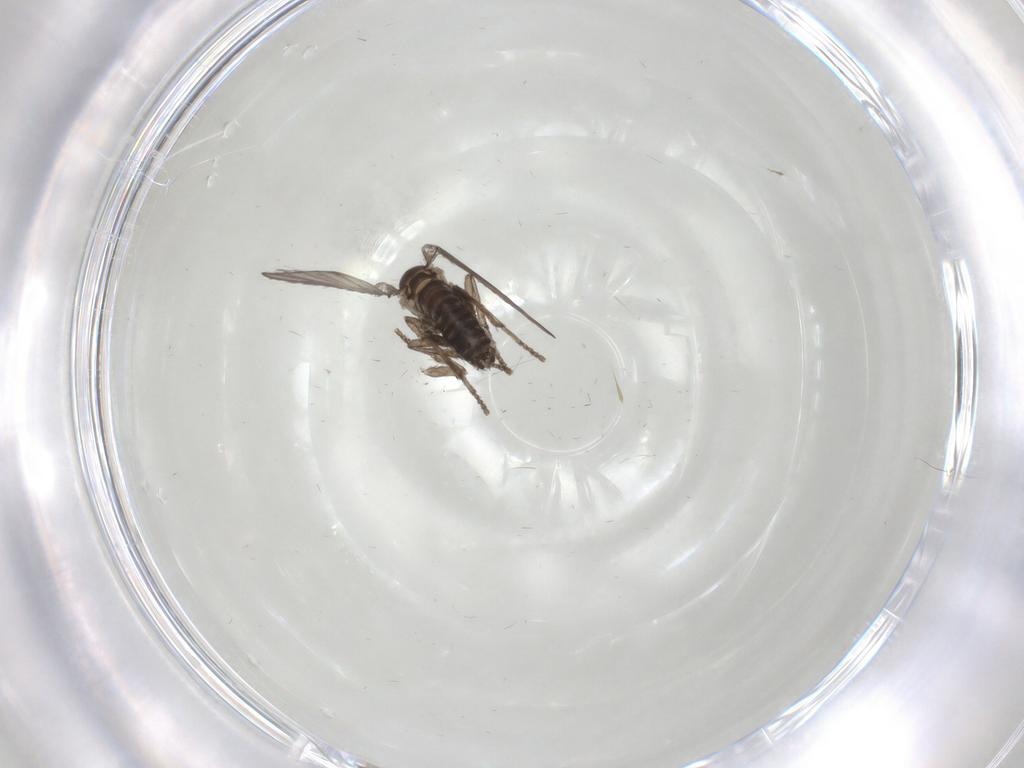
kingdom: Animalia
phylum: Arthropoda
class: Insecta
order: Diptera
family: Psychodidae
